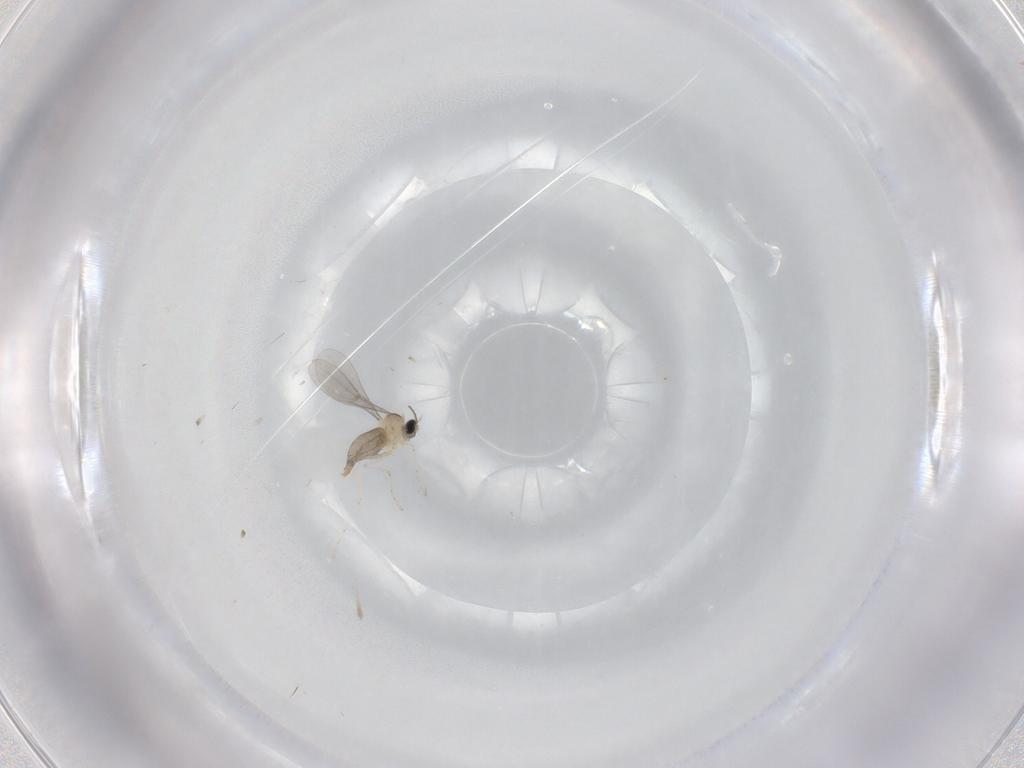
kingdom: Animalia
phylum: Arthropoda
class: Insecta
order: Diptera
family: Cecidomyiidae
